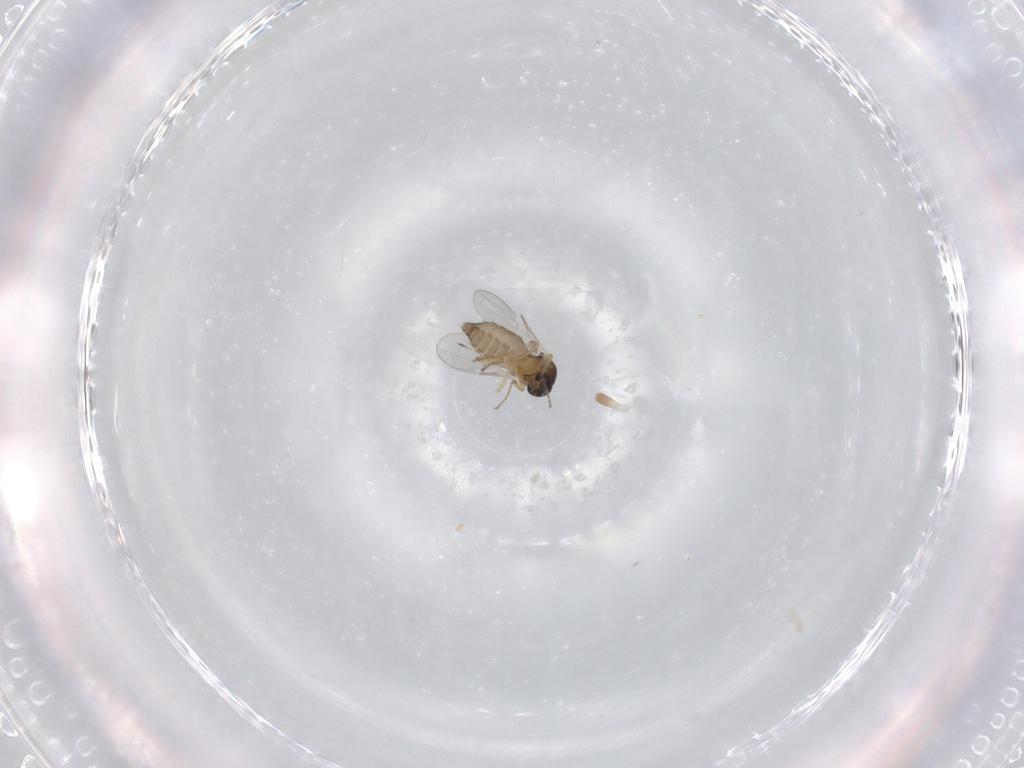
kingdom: Animalia
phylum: Arthropoda
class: Insecta
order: Diptera
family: Ceratopogonidae
